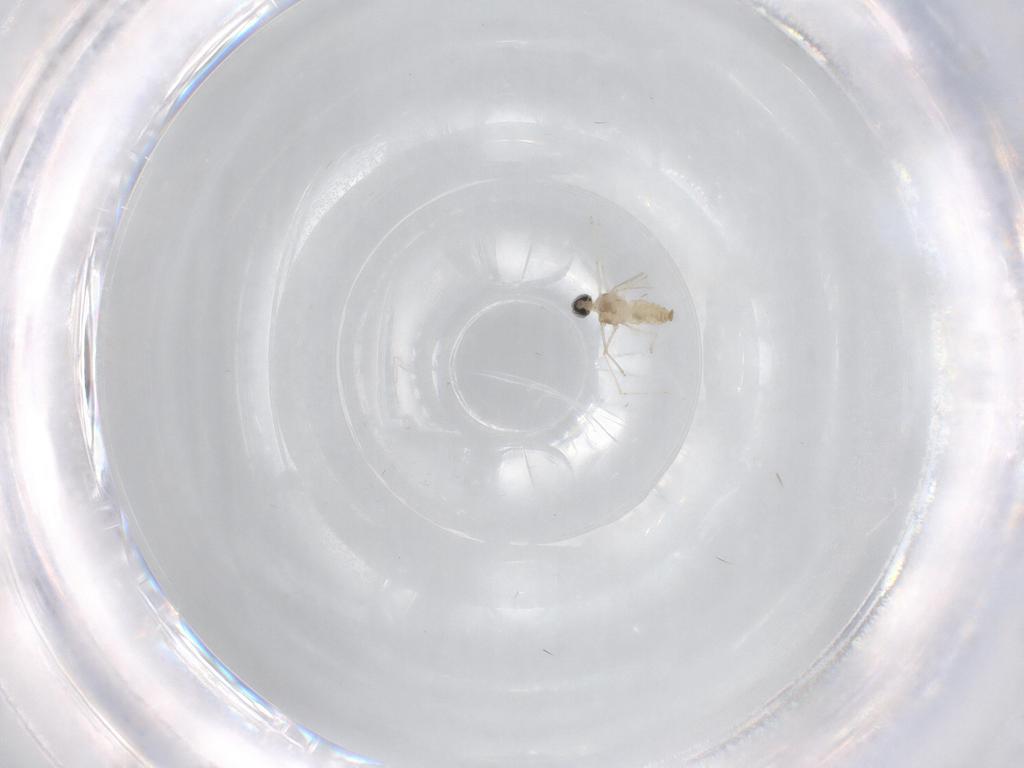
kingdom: Animalia
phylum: Arthropoda
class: Insecta
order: Diptera
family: Cecidomyiidae
